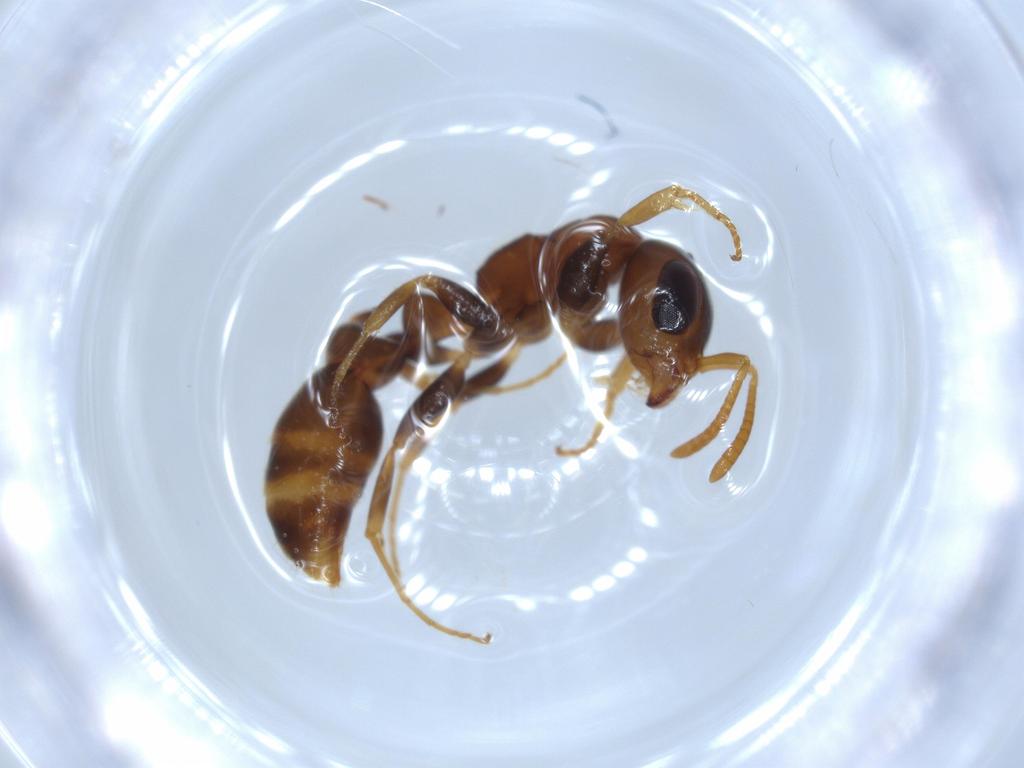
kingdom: Animalia
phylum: Arthropoda
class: Insecta
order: Hymenoptera
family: Formicidae
